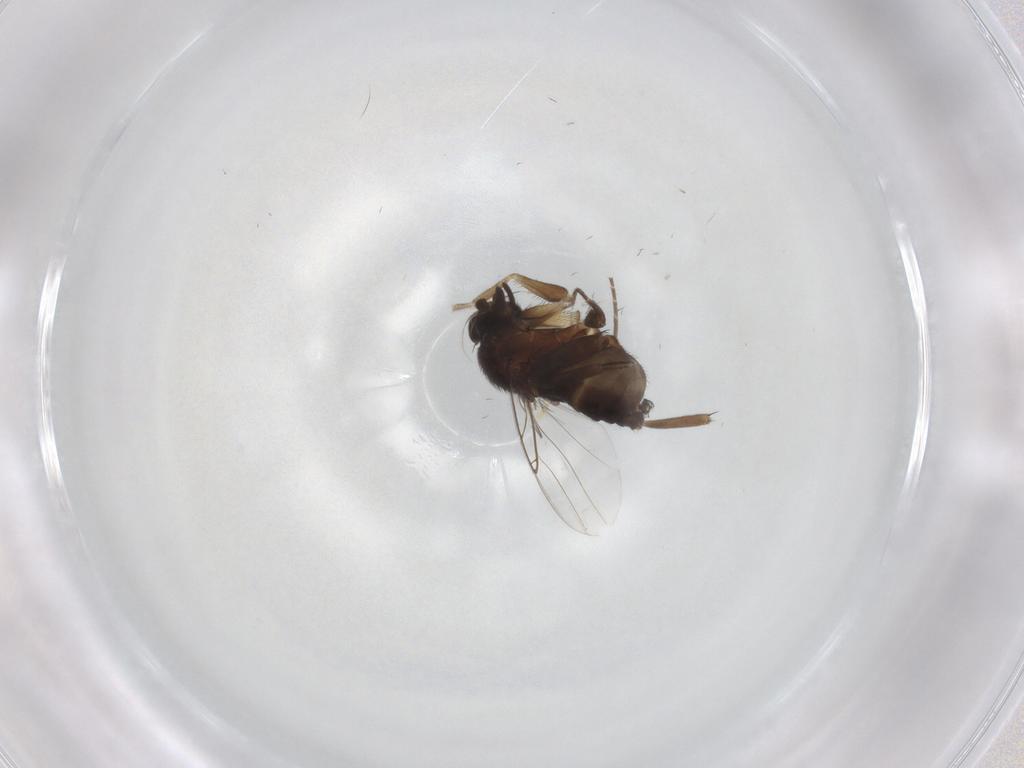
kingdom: Animalia
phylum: Arthropoda
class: Insecta
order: Diptera
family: Phoridae
